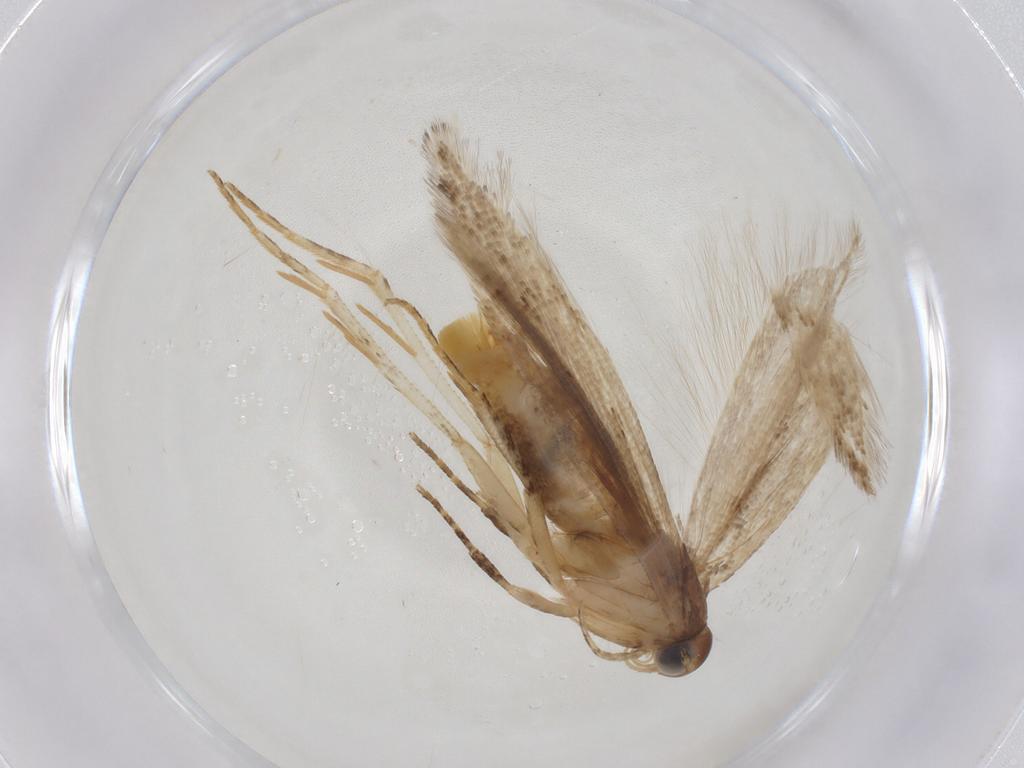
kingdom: Animalia
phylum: Arthropoda
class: Insecta
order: Lepidoptera
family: Gelechiidae
